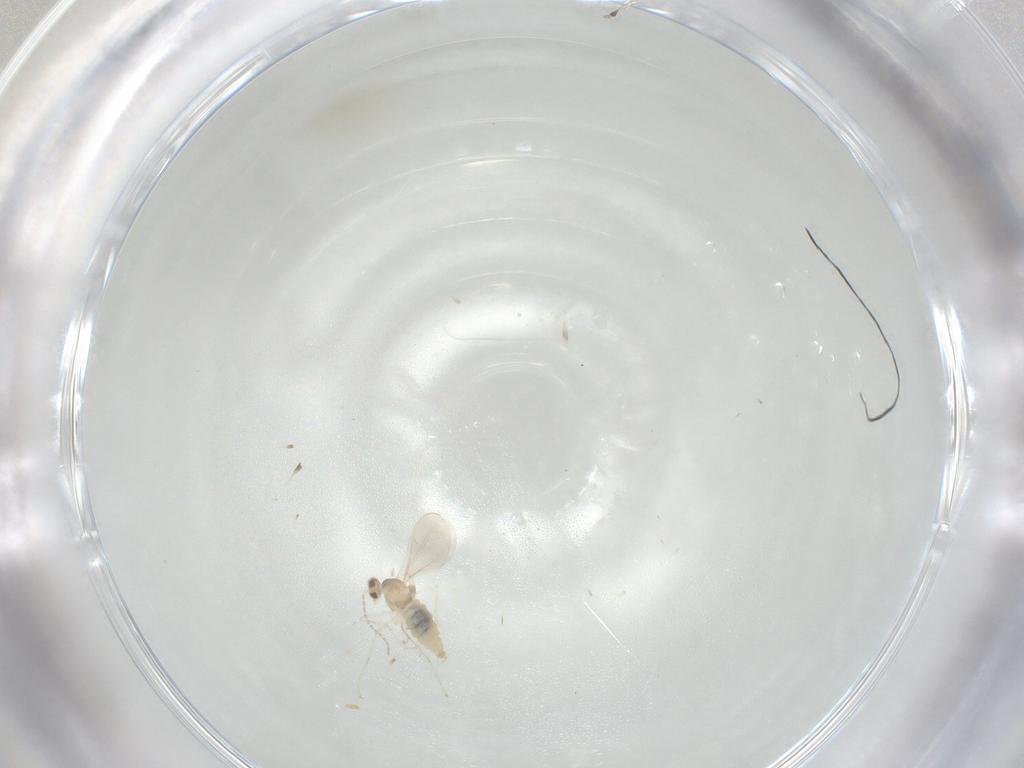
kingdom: Animalia
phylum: Arthropoda
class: Insecta
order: Diptera
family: Cecidomyiidae
